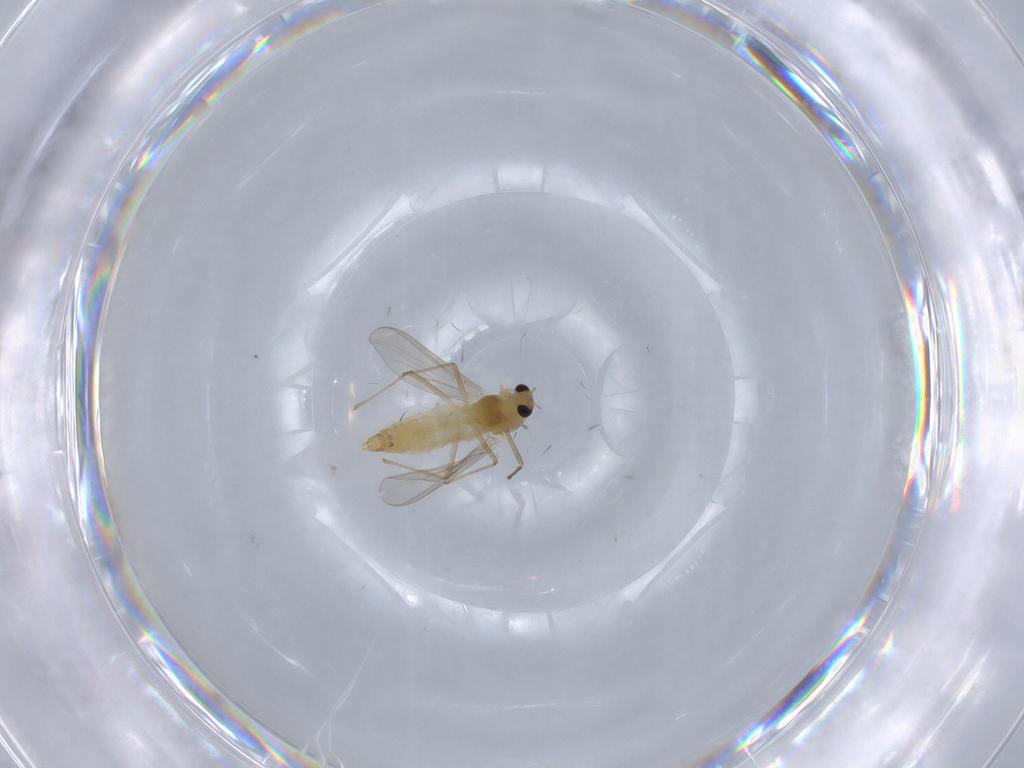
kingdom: Animalia
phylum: Arthropoda
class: Insecta
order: Diptera
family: Chironomidae
